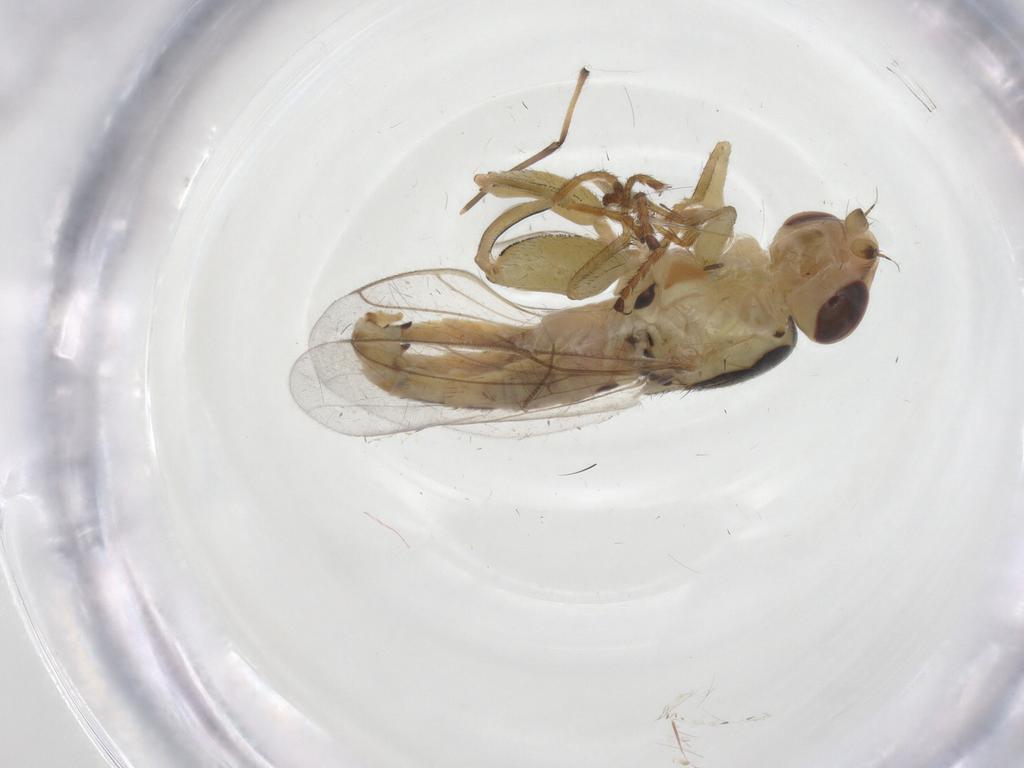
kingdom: Animalia
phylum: Arthropoda
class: Insecta
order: Diptera
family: Chloropidae
